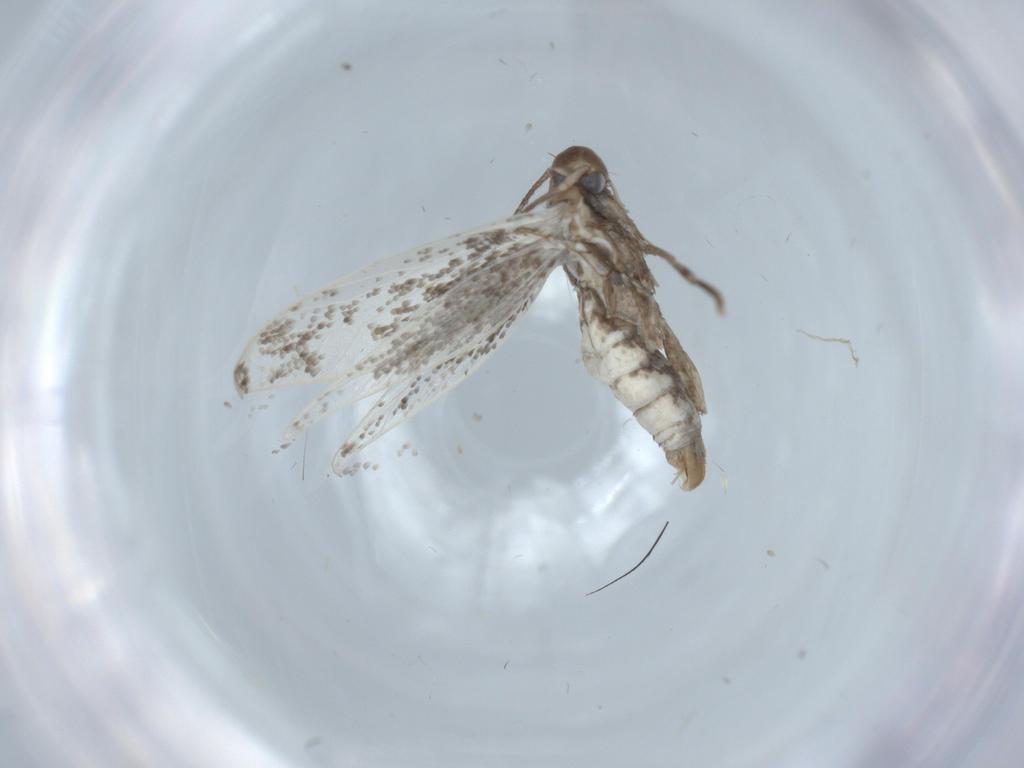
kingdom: Animalia
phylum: Arthropoda
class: Insecta
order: Lepidoptera
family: Elachistidae
